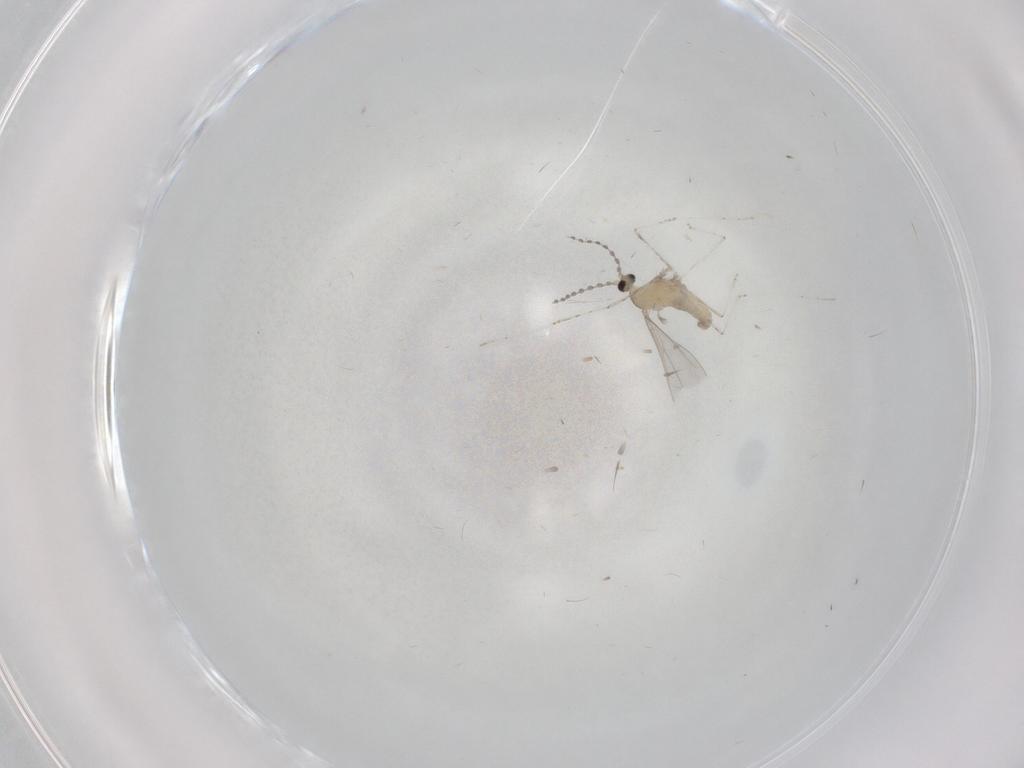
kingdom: Animalia
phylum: Arthropoda
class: Insecta
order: Diptera
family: Cecidomyiidae
